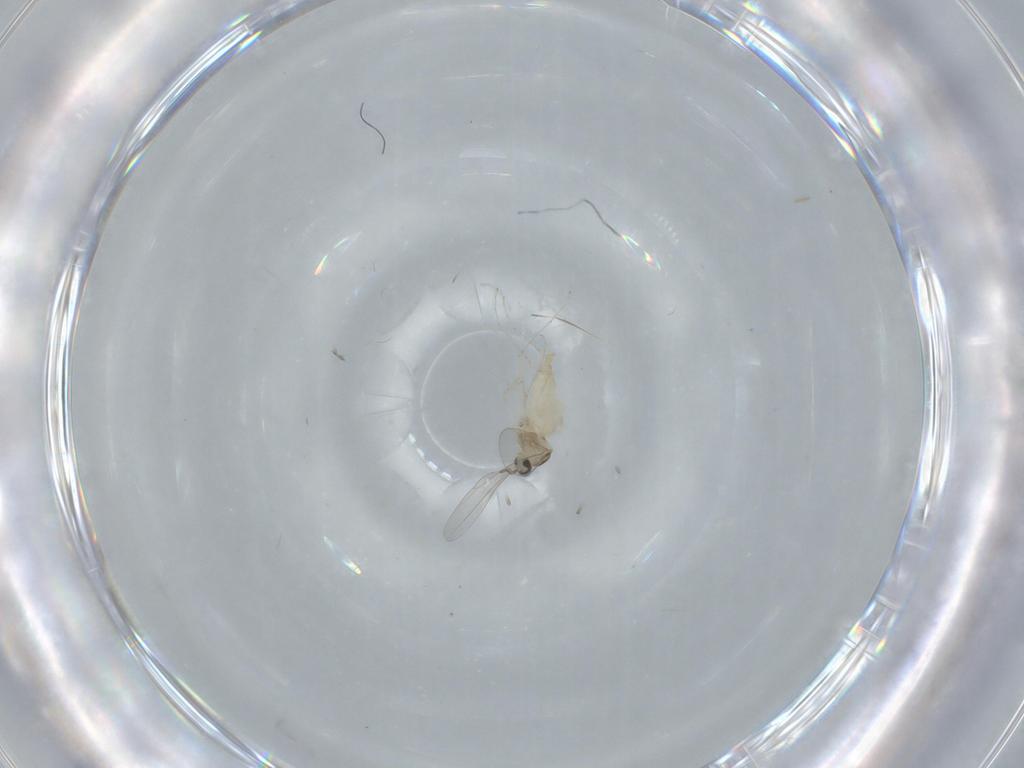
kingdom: Animalia
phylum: Arthropoda
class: Insecta
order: Diptera
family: Cecidomyiidae
